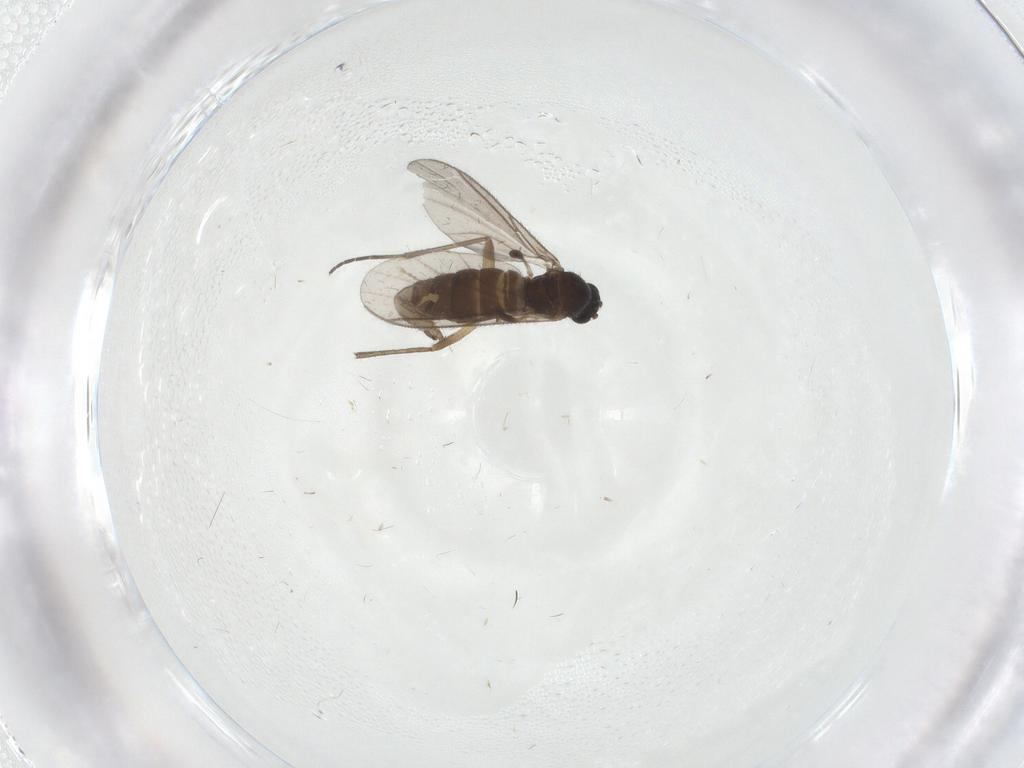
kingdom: Animalia
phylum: Arthropoda
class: Insecta
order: Diptera
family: Sciaridae
